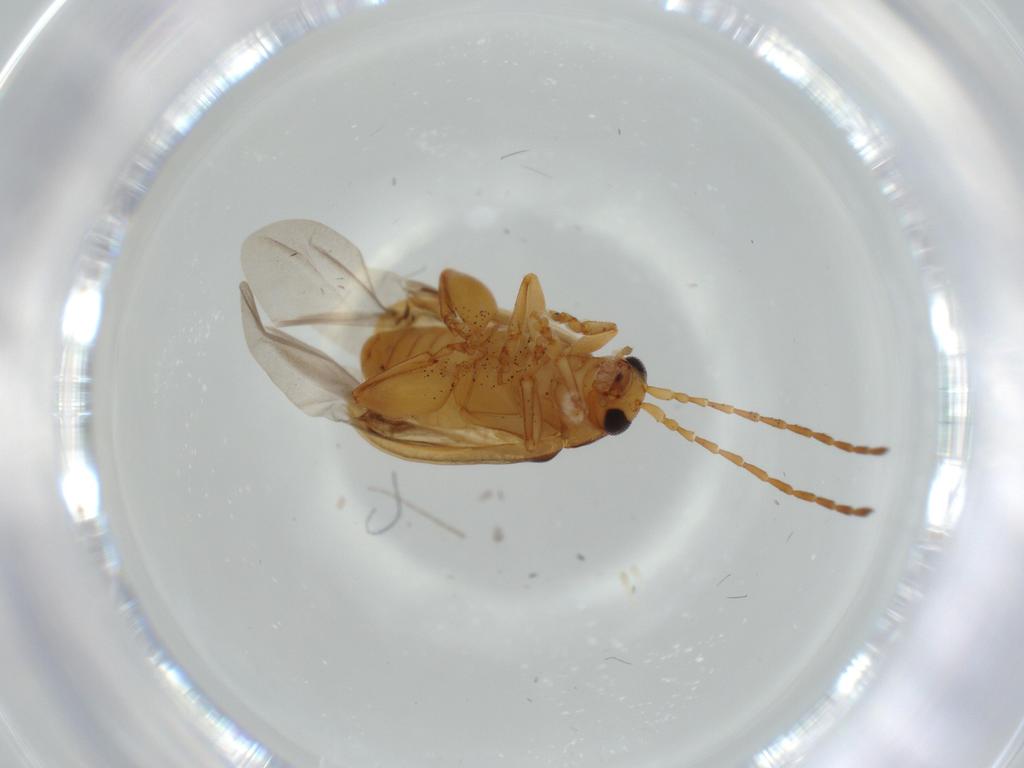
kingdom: Animalia
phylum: Arthropoda
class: Insecta
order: Coleoptera
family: Chrysomelidae
